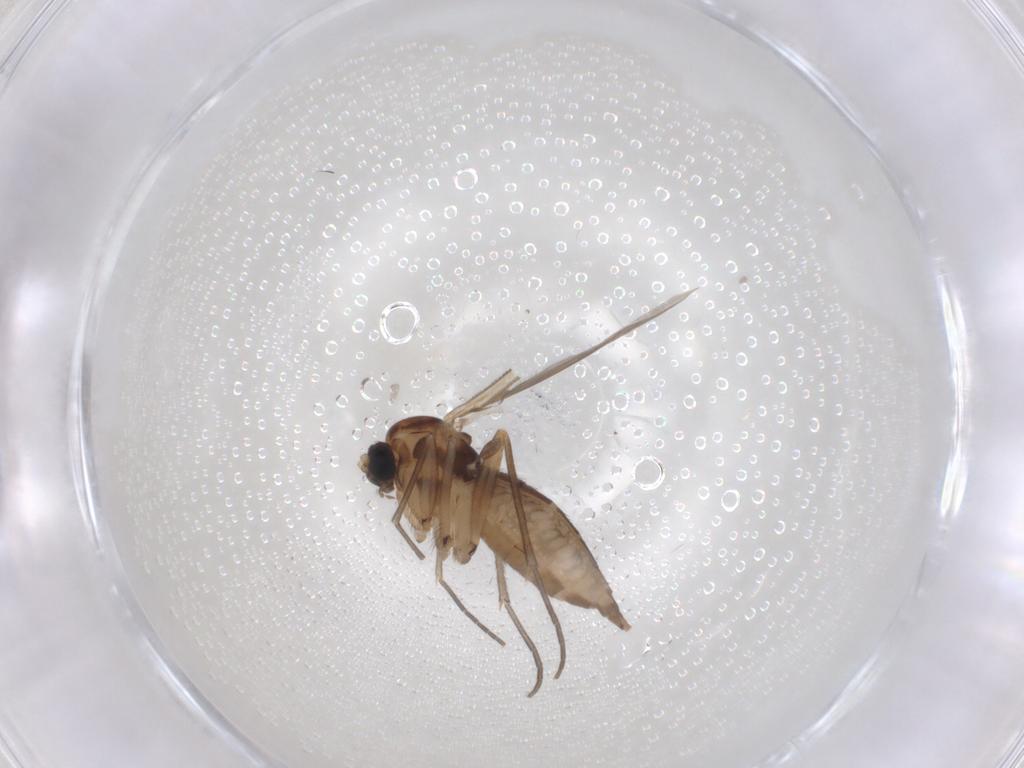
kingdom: Animalia
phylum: Arthropoda
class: Insecta
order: Diptera
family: Sciaridae
